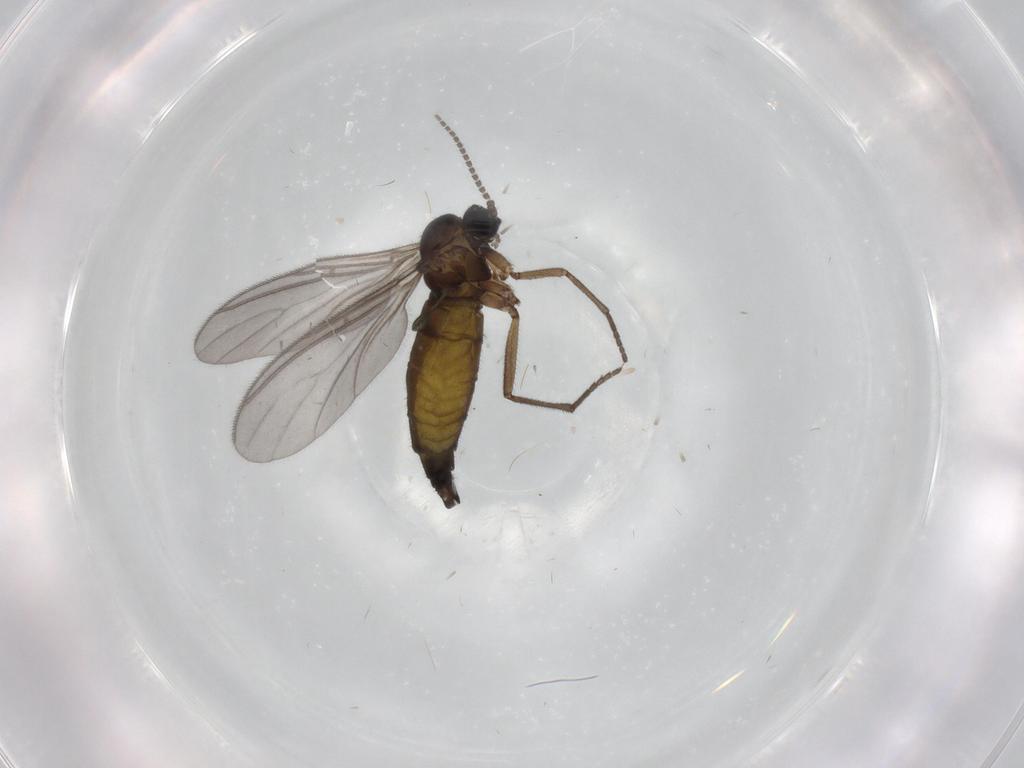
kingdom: Animalia
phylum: Arthropoda
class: Insecta
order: Diptera
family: Sciaridae
